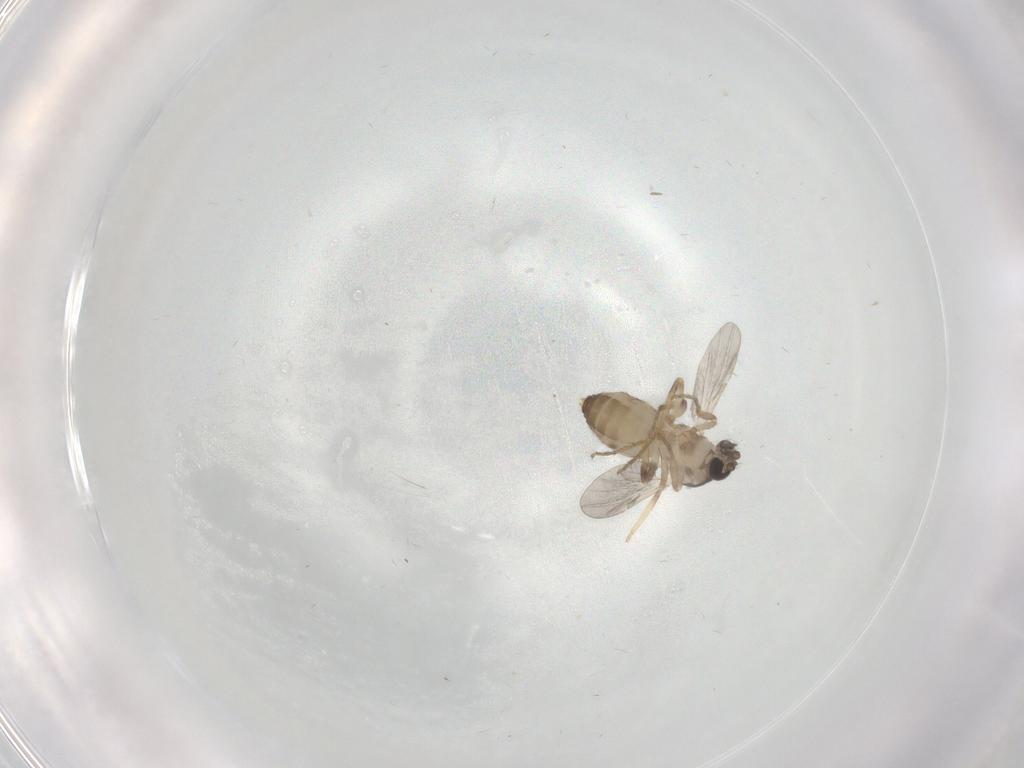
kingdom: Animalia
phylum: Arthropoda
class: Insecta
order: Diptera
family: Ceratopogonidae
